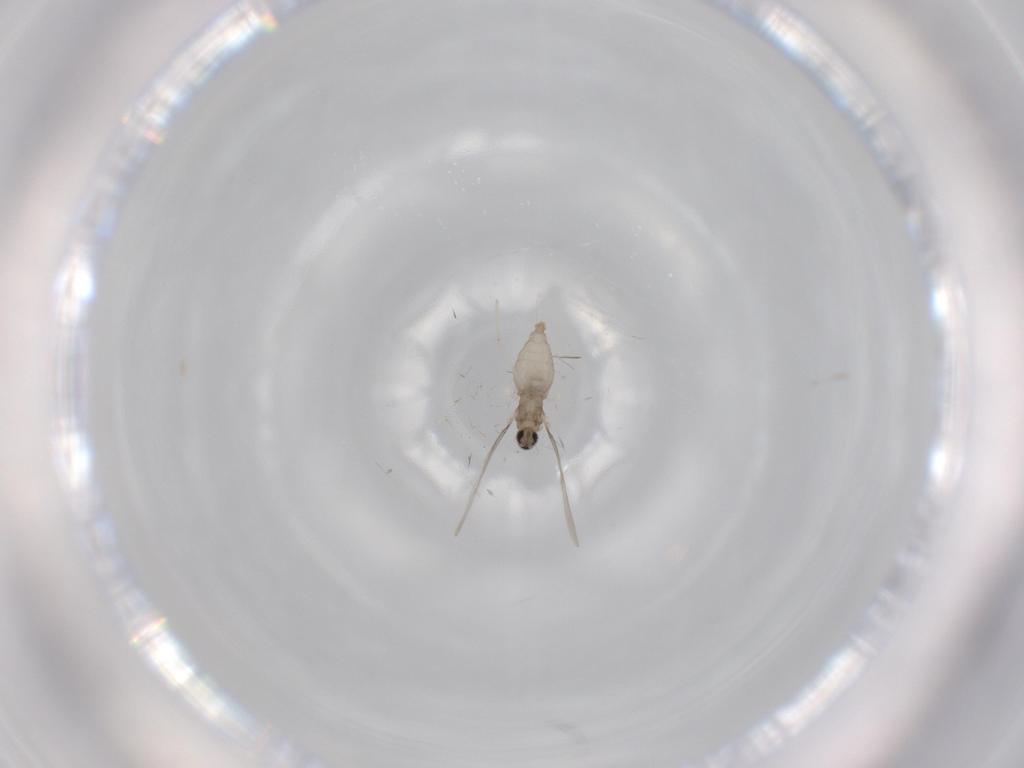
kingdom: Animalia
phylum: Arthropoda
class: Insecta
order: Diptera
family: Cecidomyiidae
